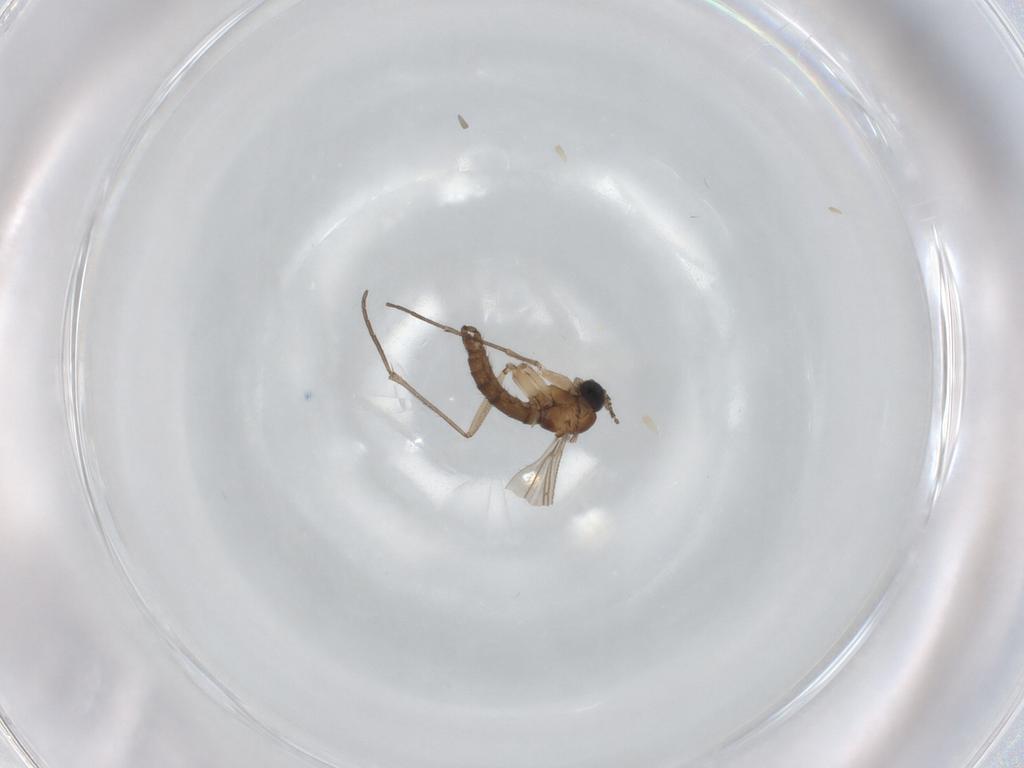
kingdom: Animalia
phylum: Arthropoda
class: Insecta
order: Diptera
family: Sciaridae
